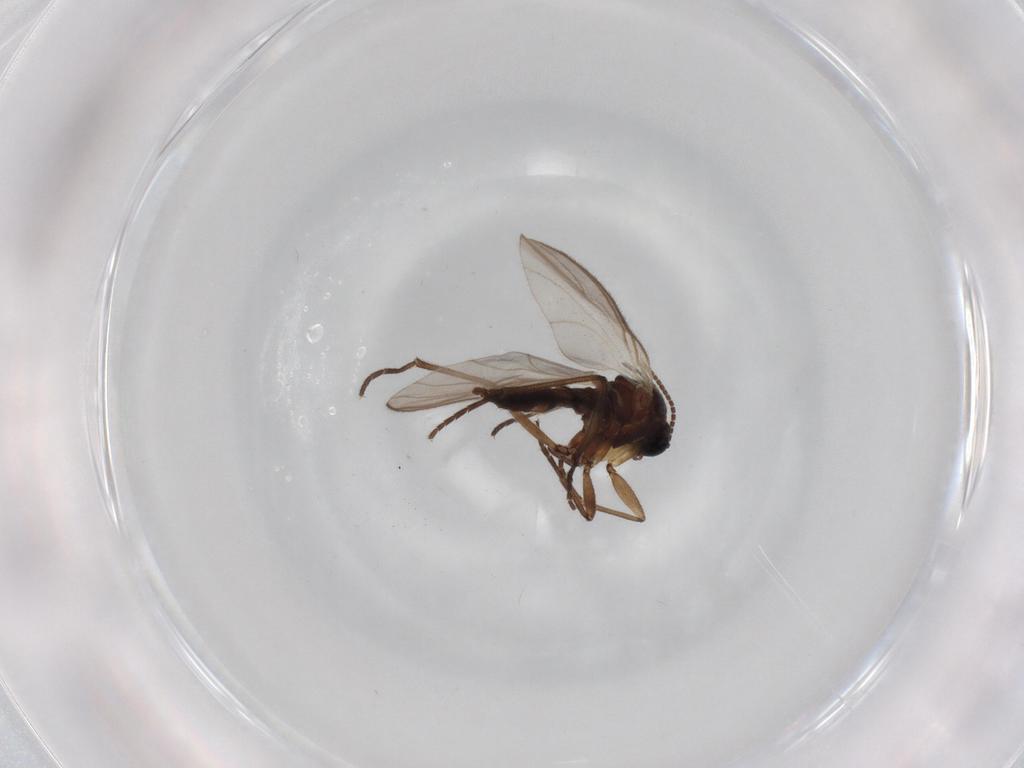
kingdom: Animalia
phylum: Arthropoda
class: Insecta
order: Diptera
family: Sciaridae
